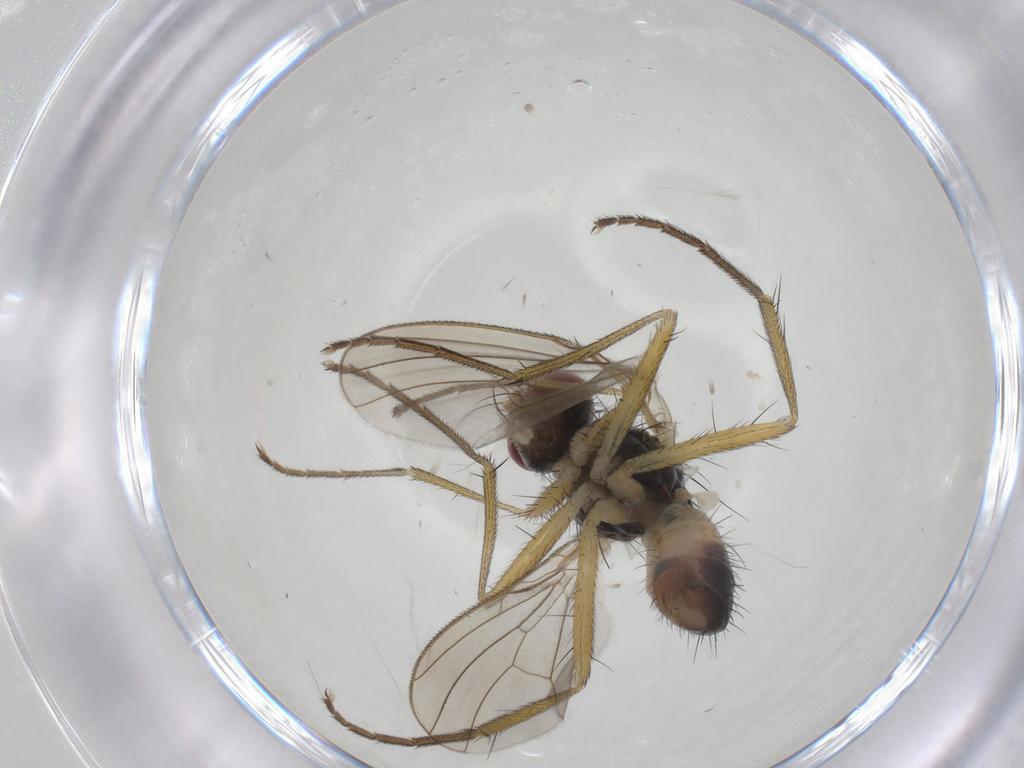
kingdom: Animalia
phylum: Arthropoda
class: Insecta
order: Diptera
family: Muscidae
